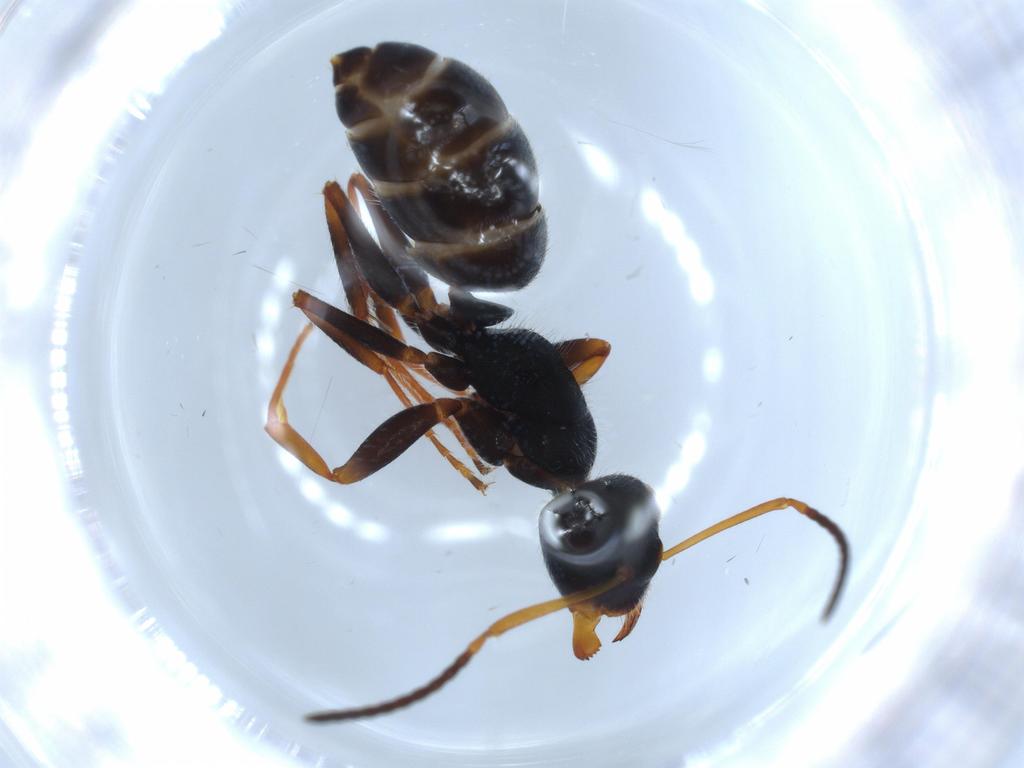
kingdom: Animalia
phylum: Arthropoda
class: Insecta
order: Hymenoptera
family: Formicidae
